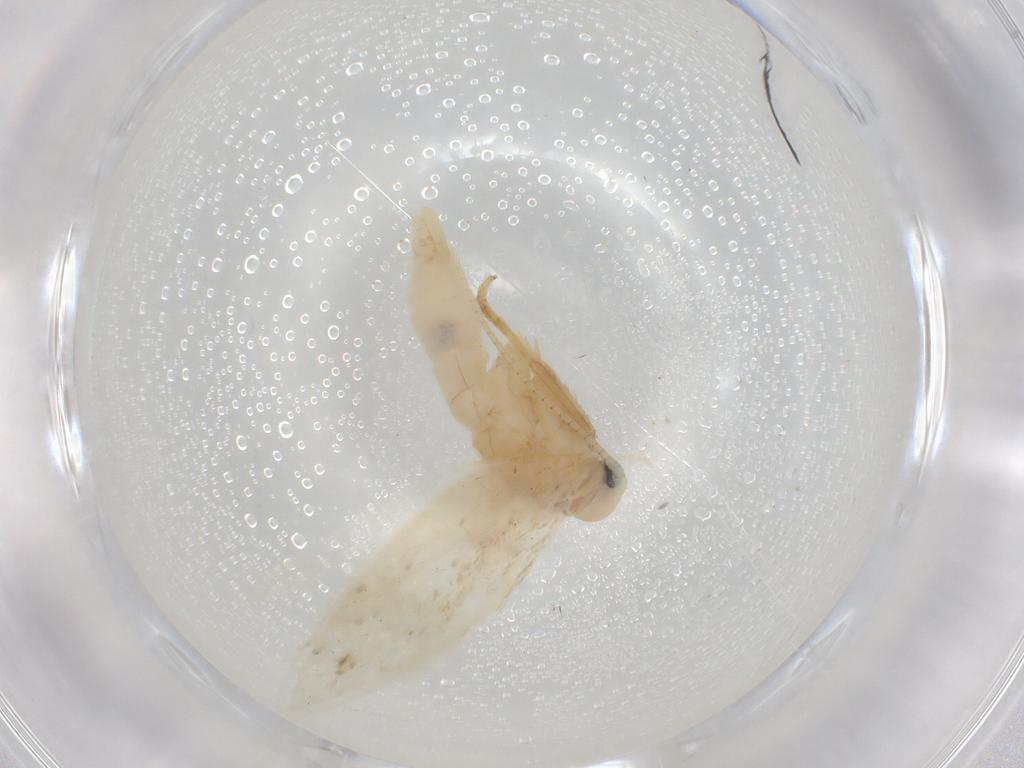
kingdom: Animalia
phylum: Arthropoda
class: Insecta
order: Lepidoptera
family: Elachistidae
